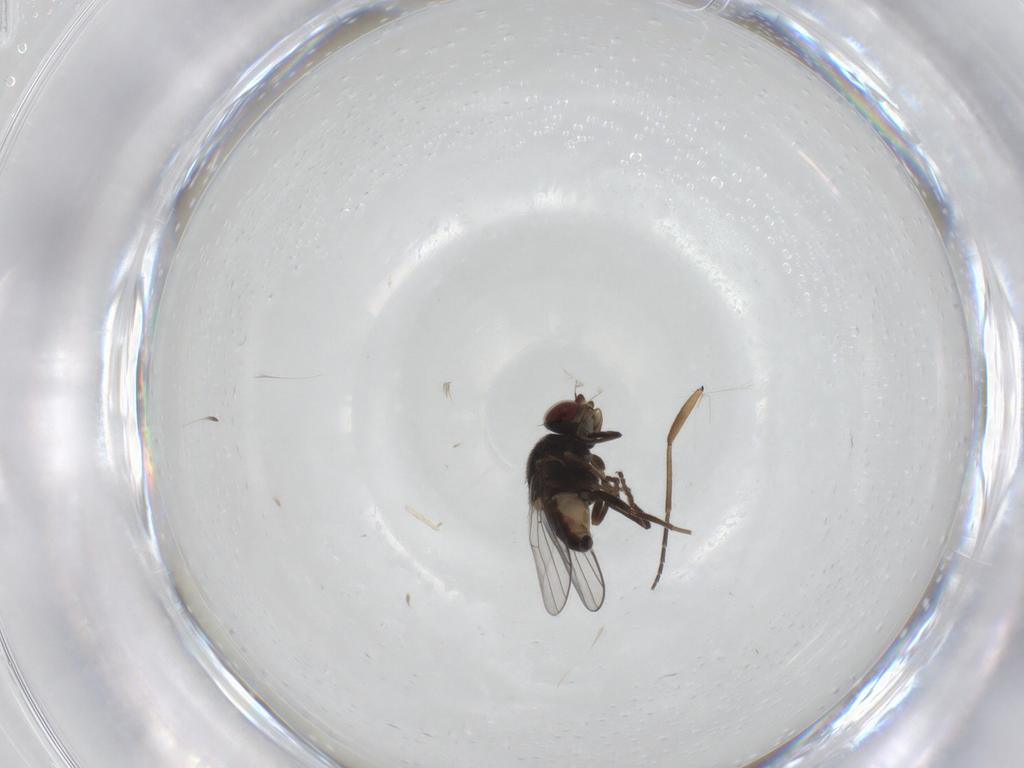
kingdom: Animalia
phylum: Arthropoda
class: Insecta
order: Diptera
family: Chloropidae
